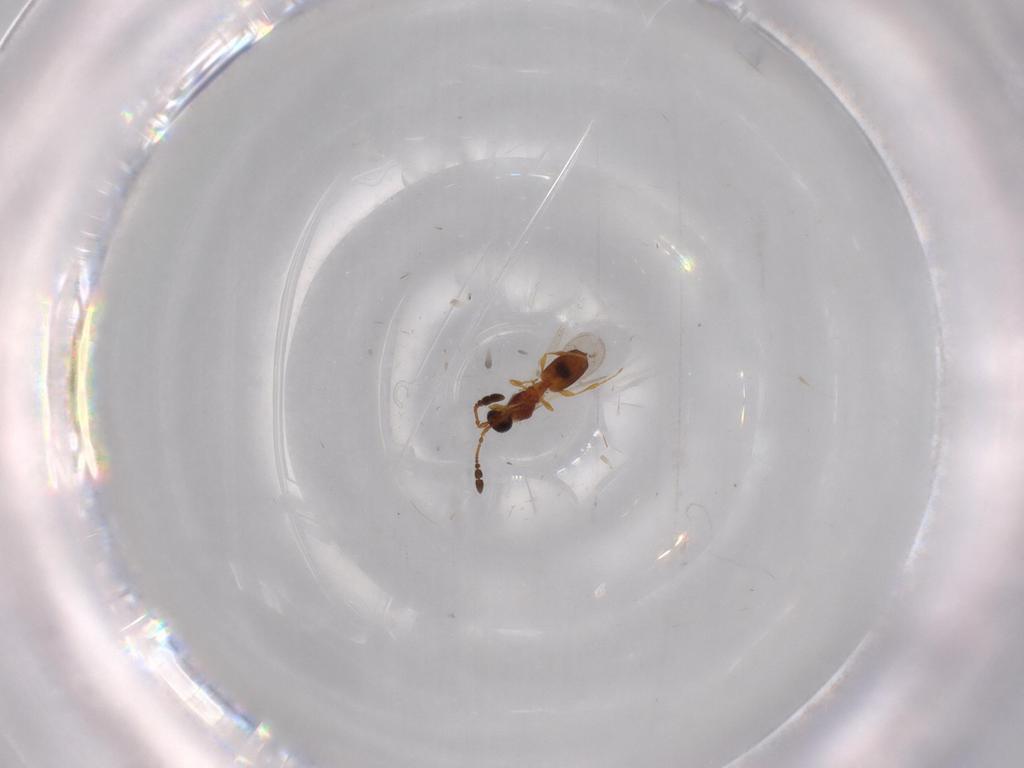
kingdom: Animalia
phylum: Arthropoda
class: Insecta
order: Hymenoptera
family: Diapriidae
